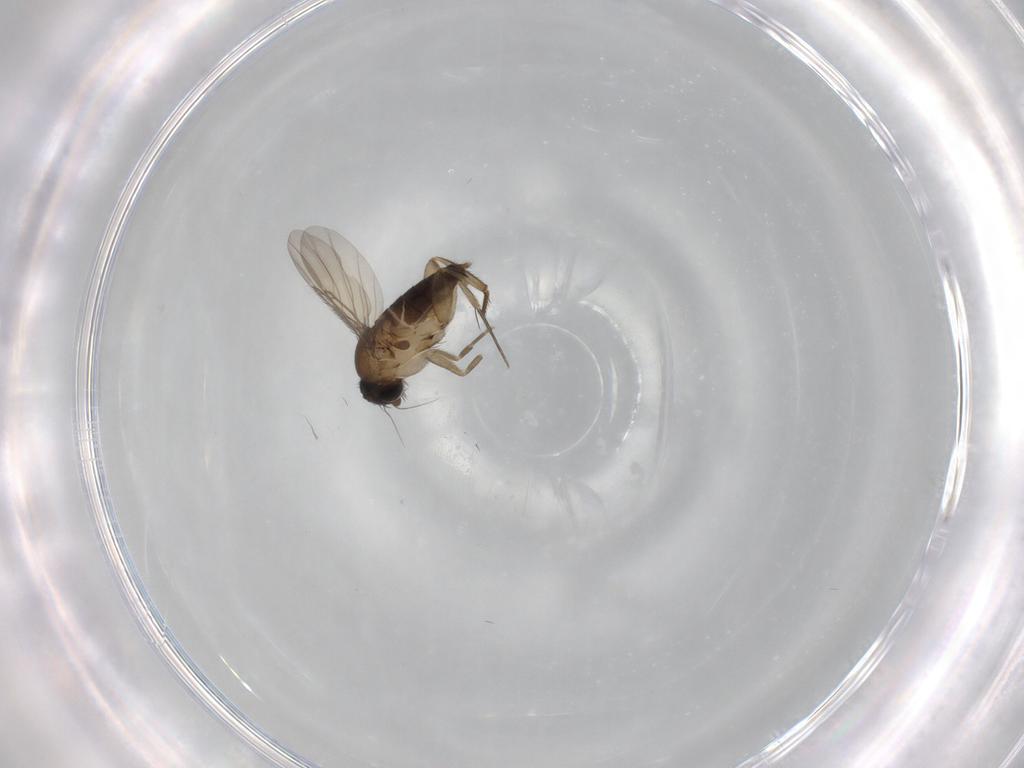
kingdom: Animalia
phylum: Arthropoda
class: Insecta
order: Diptera
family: Phoridae
